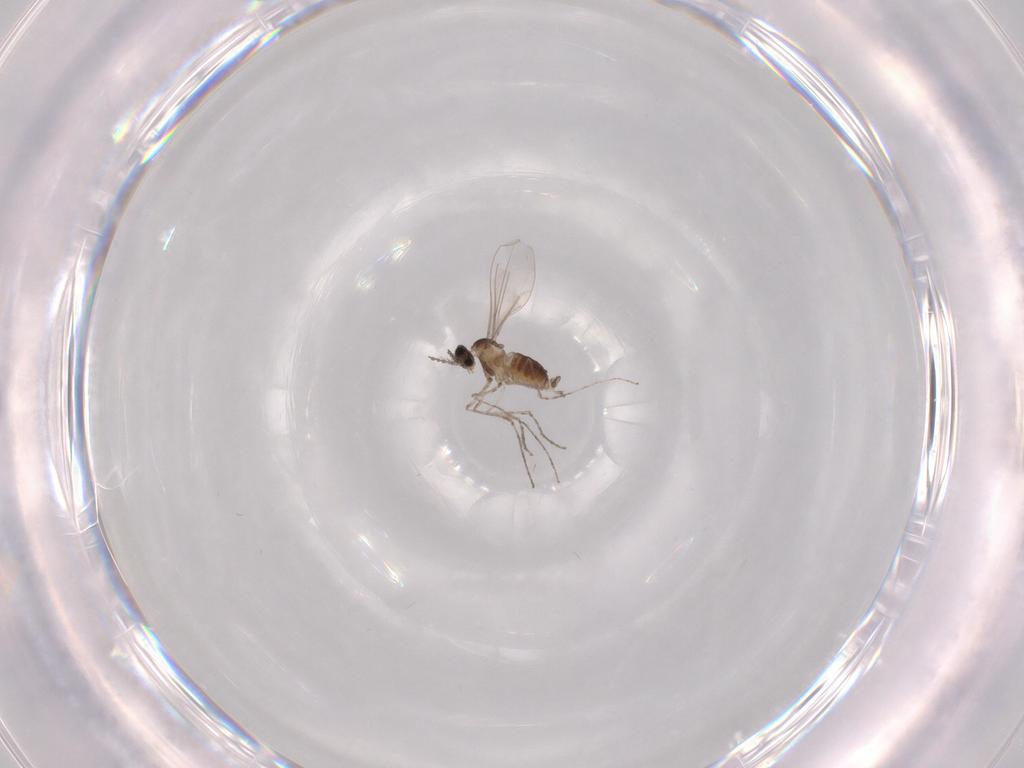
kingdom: Animalia
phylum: Arthropoda
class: Insecta
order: Diptera
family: Cecidomyiidae
